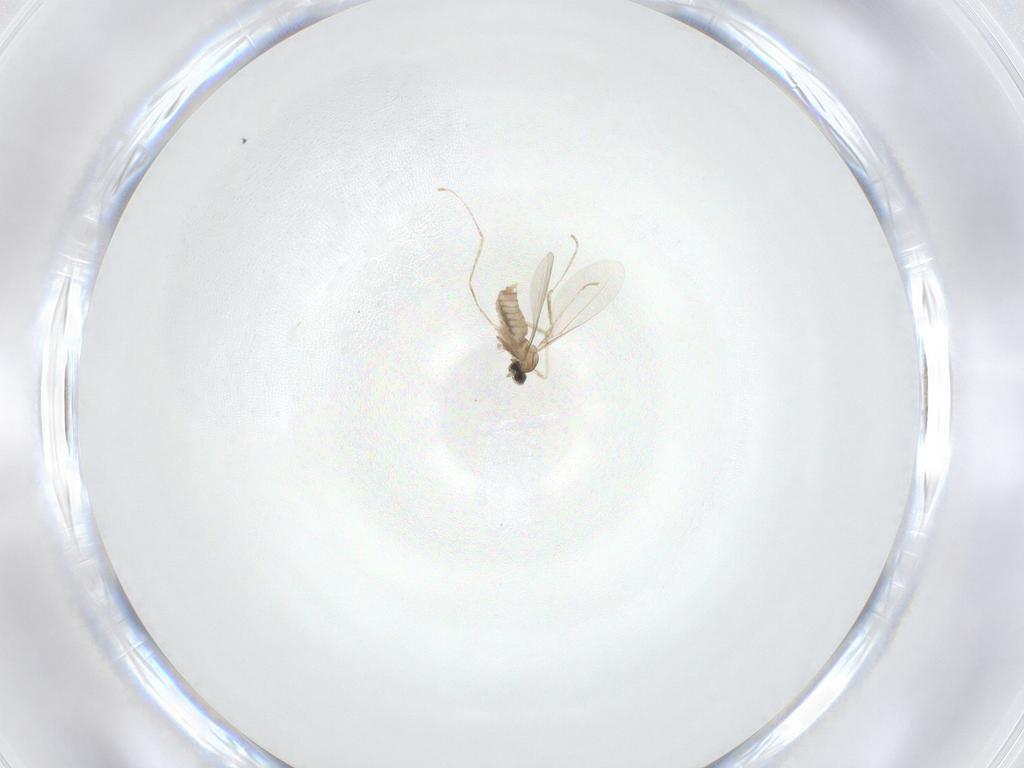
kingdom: Animalia
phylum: Arthropoda
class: Insecta
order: Diptera
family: Cecidomyiidae
